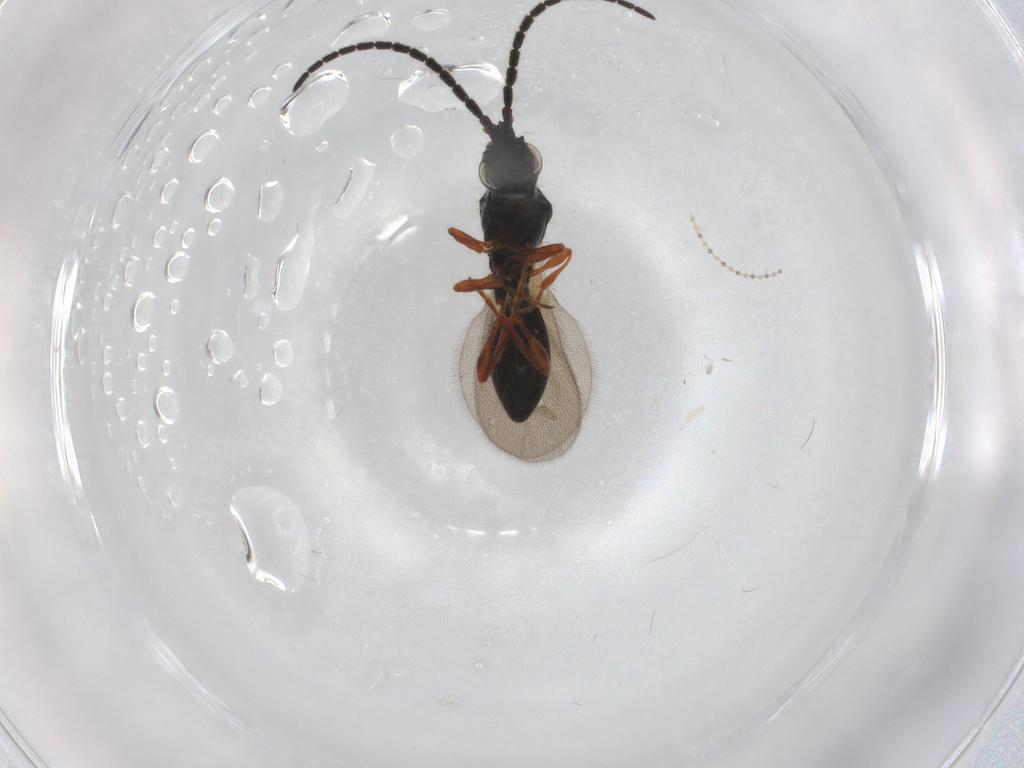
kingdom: Animalia
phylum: Arthropoda
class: Insecta
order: Hymenoptera
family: Diapriidae
